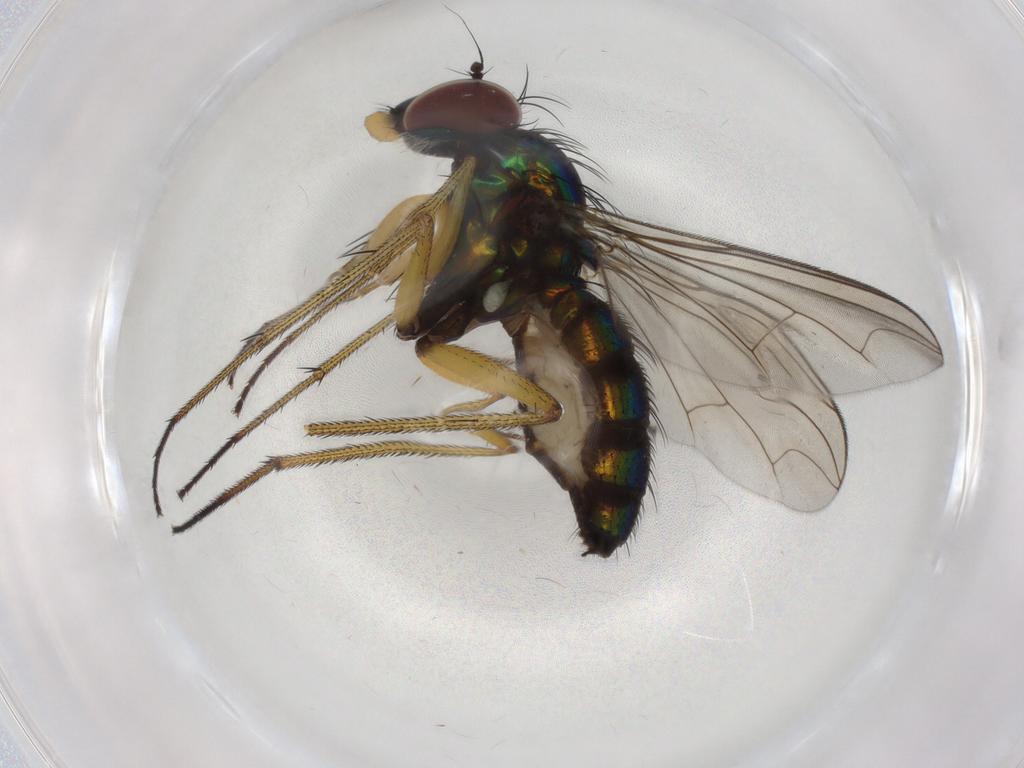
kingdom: Animalia
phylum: Arthropoda
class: Insecta
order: Diptera
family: Dolichopodidae
